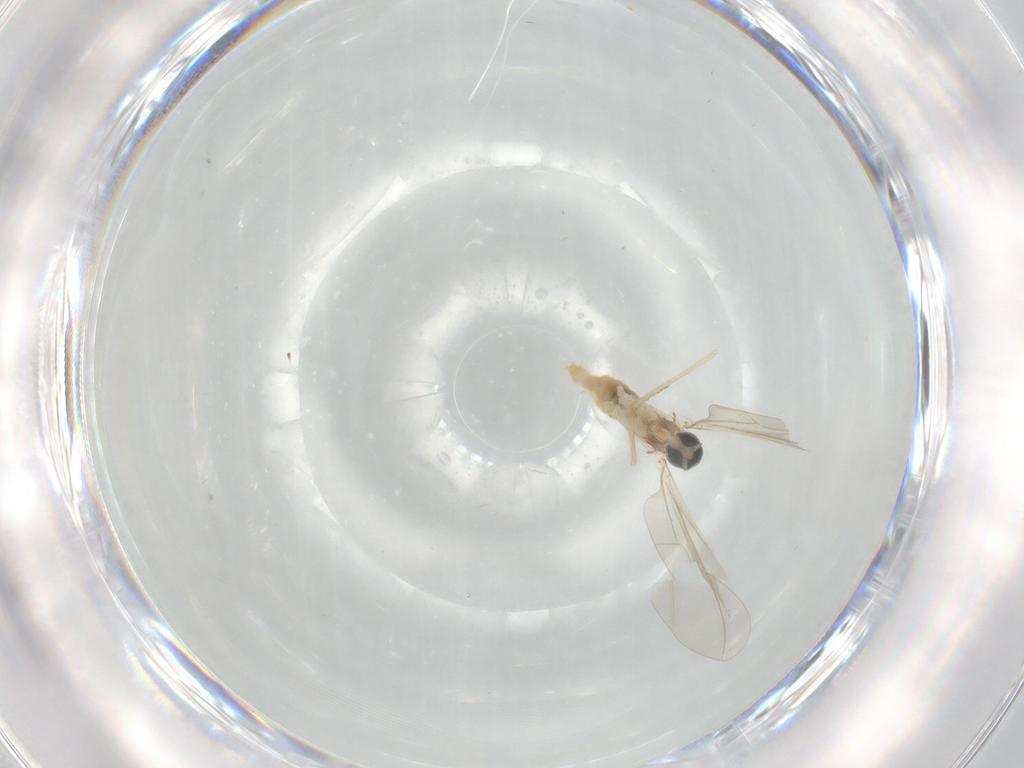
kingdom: Animalia
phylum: Arthropoda
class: Insecta
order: Diptera
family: Cecidomyiidae
